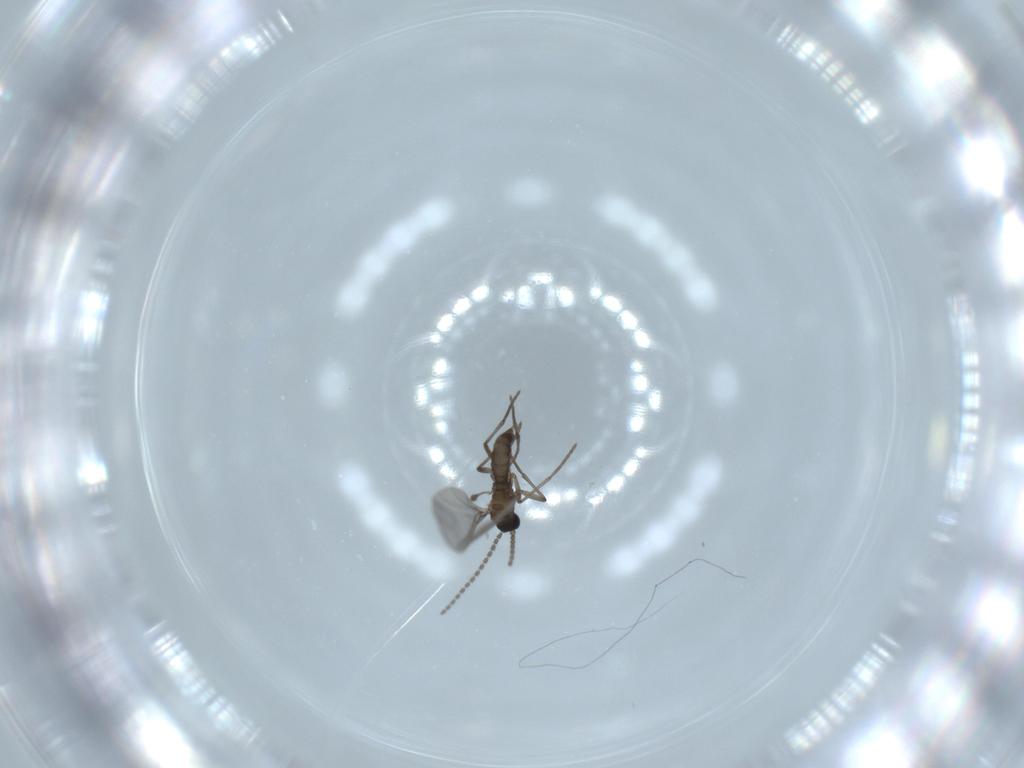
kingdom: Animalia
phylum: Arthropoda
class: Insecta
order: Diptera
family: Sciaridae
